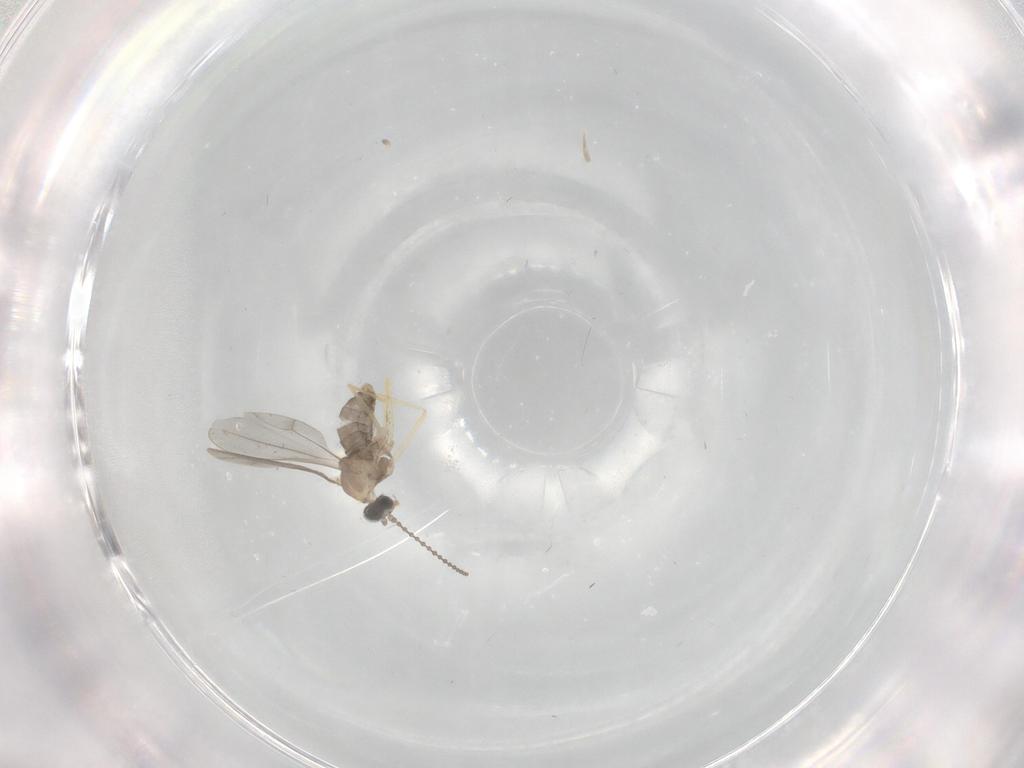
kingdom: Animalia
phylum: Arthropoda
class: Insecta
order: Diptera
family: Cecidomyiidae
